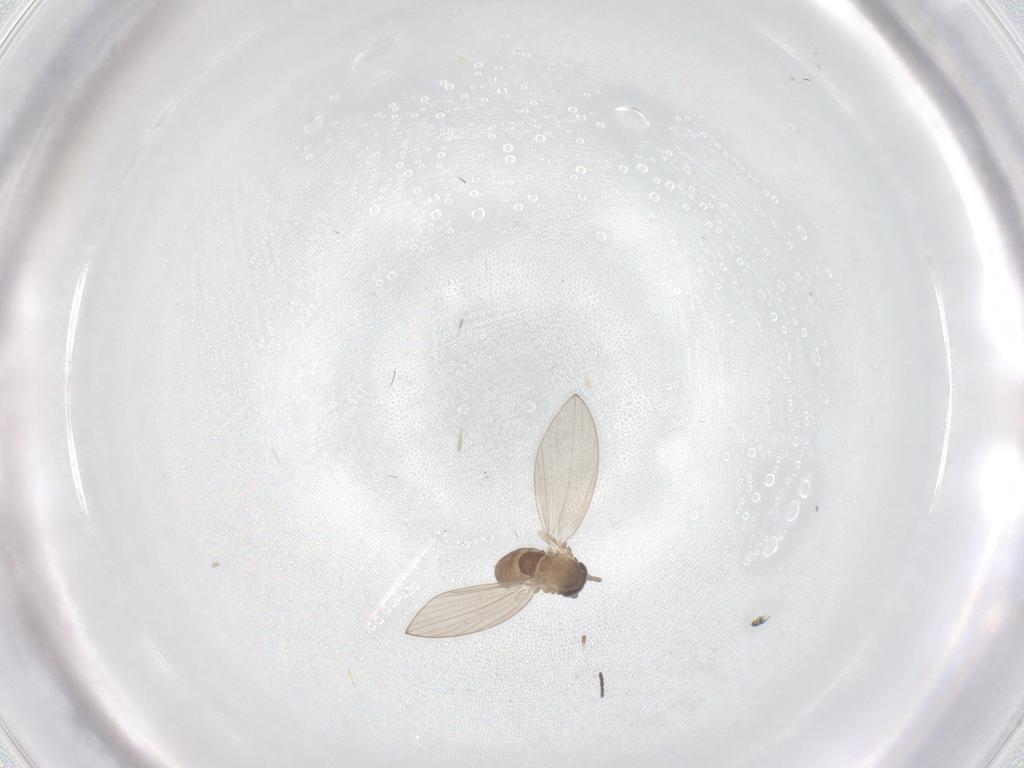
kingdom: Animalia
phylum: Arthropoda
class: Insecta
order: Diptera
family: Psychodidae
